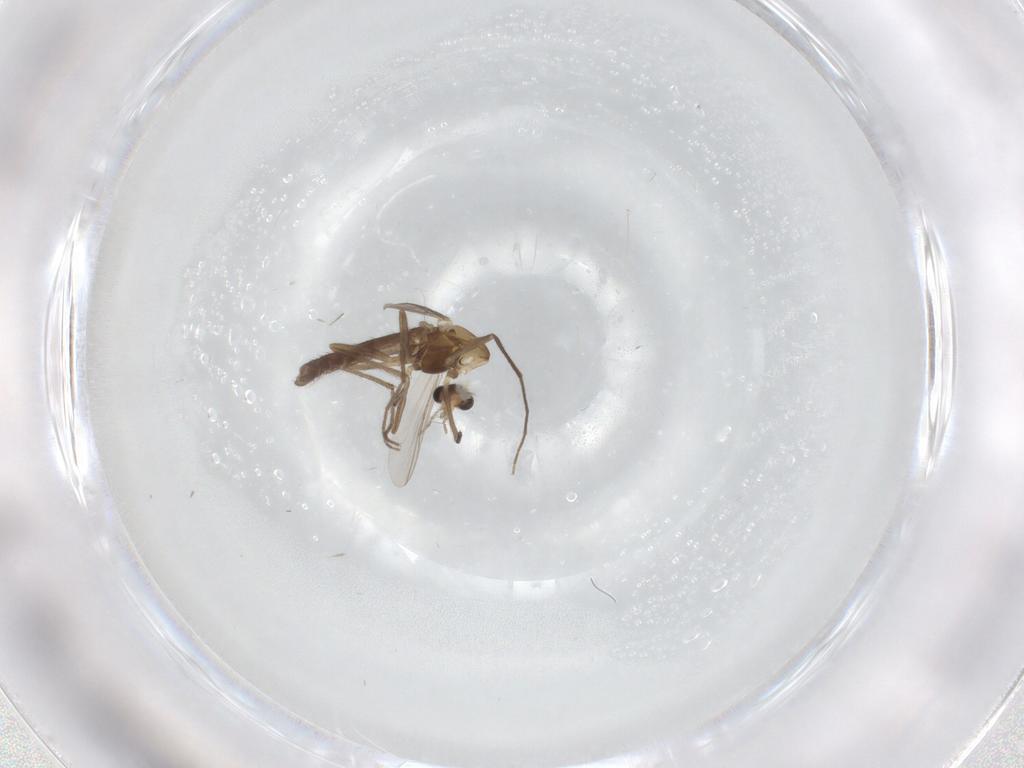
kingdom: Animalia
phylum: Arthropoda
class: Insecta
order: Diptera
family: Chironomidae
